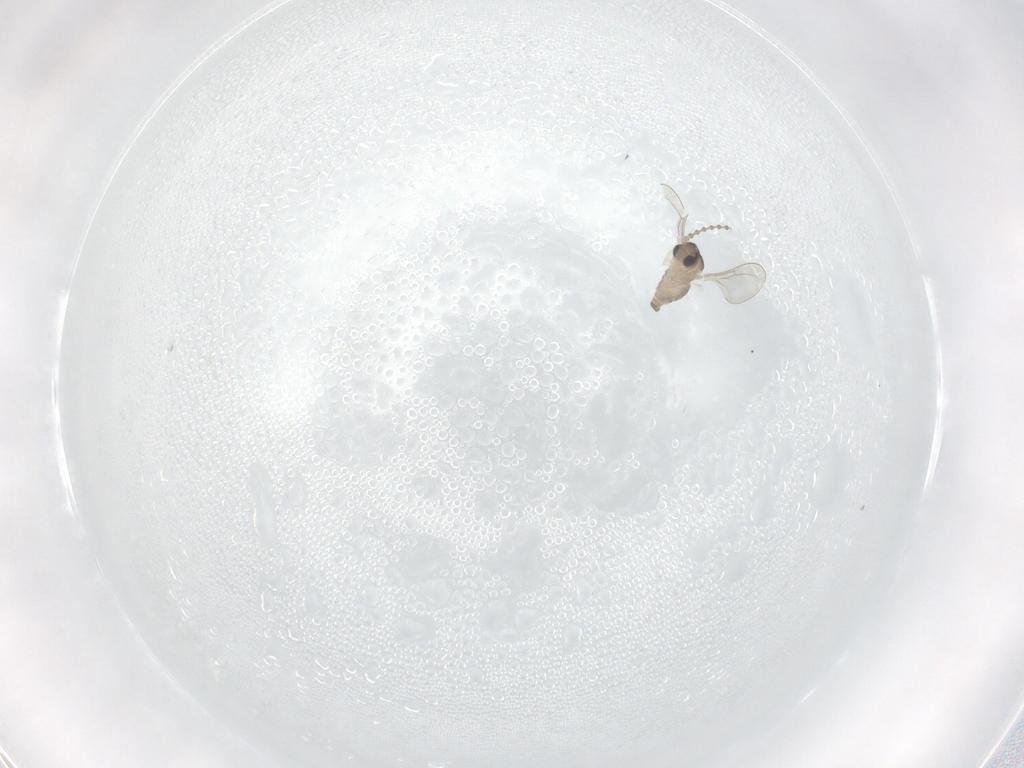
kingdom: Animalia
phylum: Arthropoda
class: Insecta
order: Diptera
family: Cecidomyiidae
